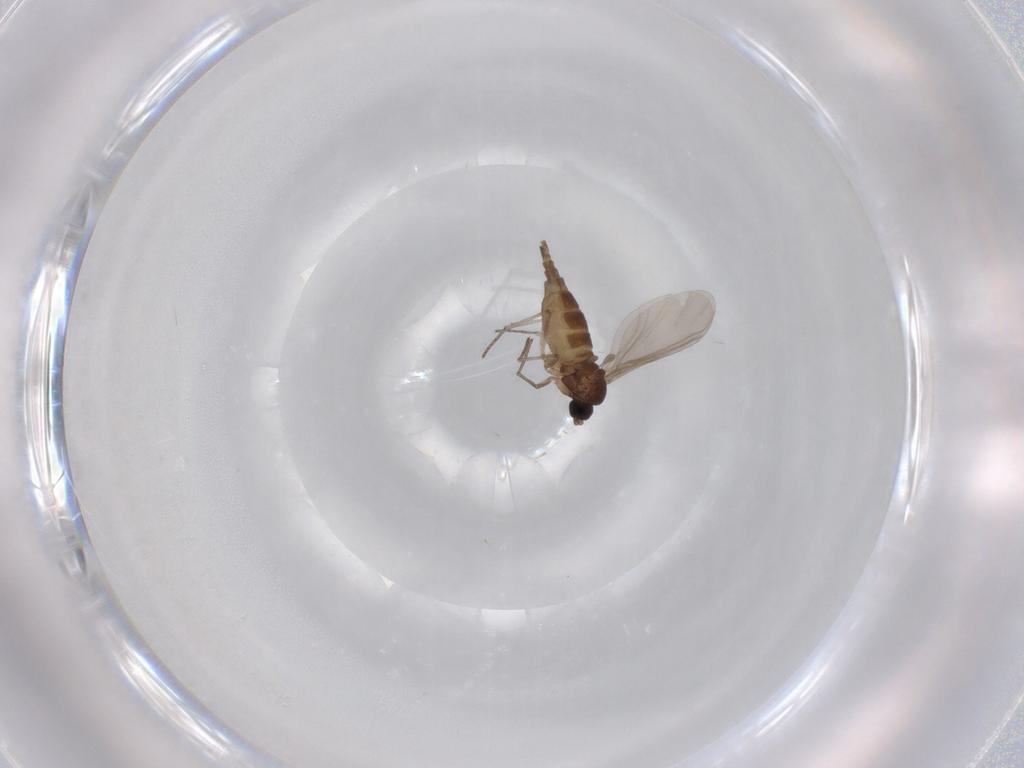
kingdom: Animalia
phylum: Arthropoda
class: Insecta
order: Diptera
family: Sciaridae
